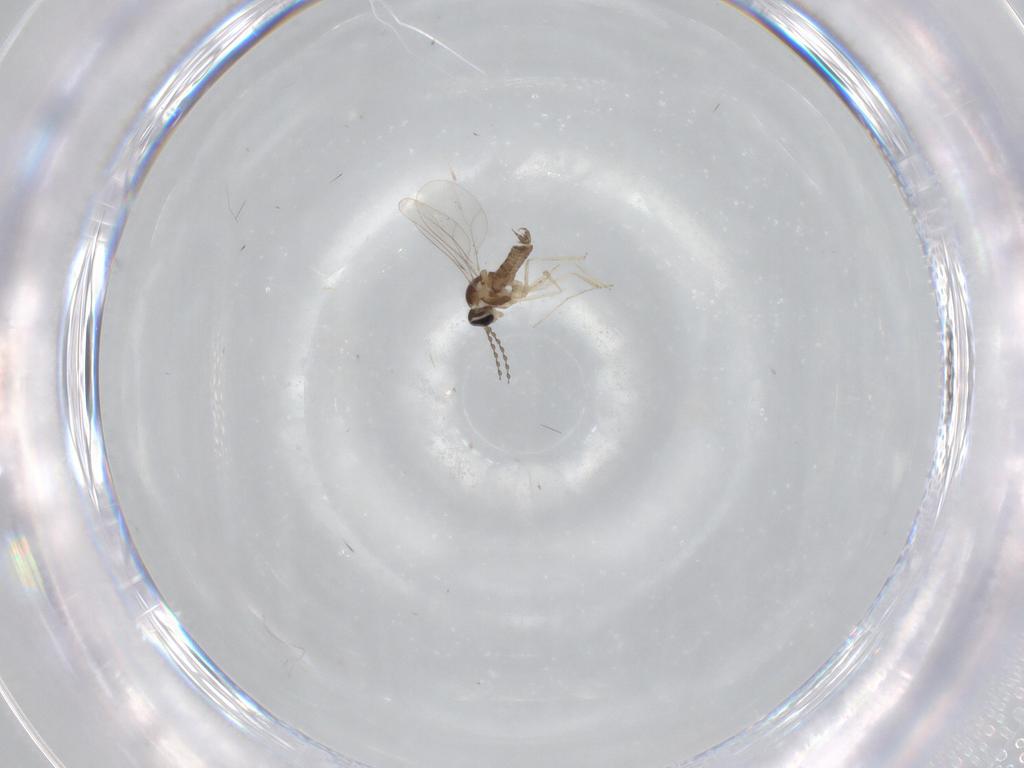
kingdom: Animalia
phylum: Arthropoda
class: Insecta
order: Diptera
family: Cecidomyiidae
